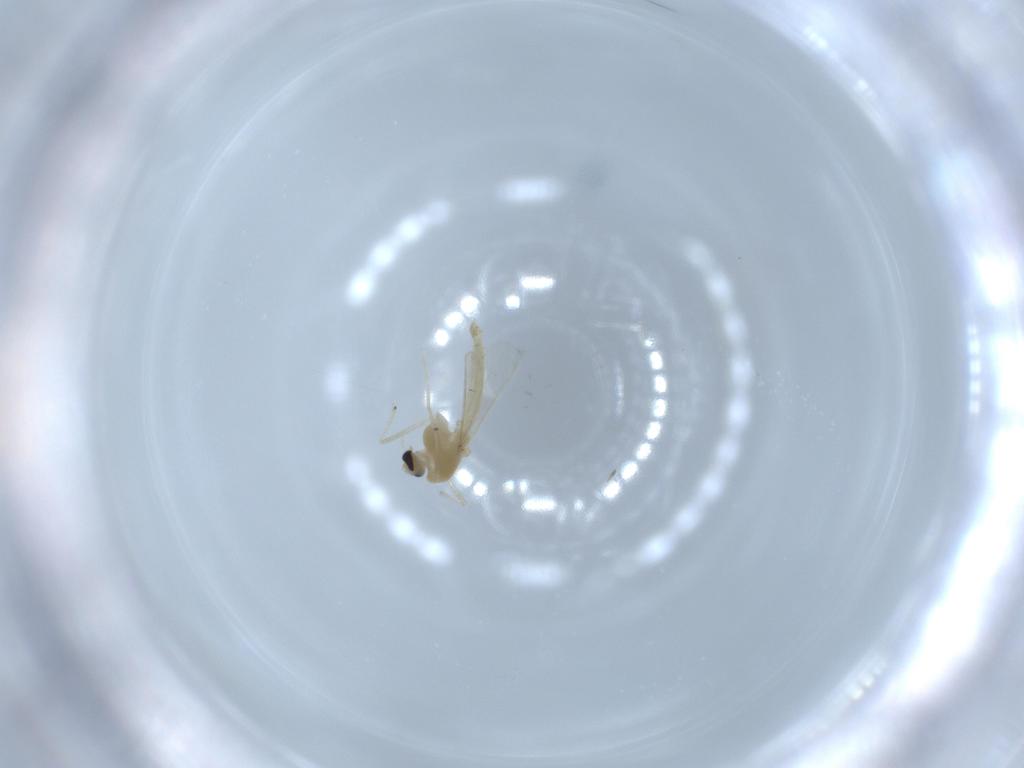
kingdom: Animalia
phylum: Arthropoda
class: Insecta
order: Diptera
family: Chironomidae
